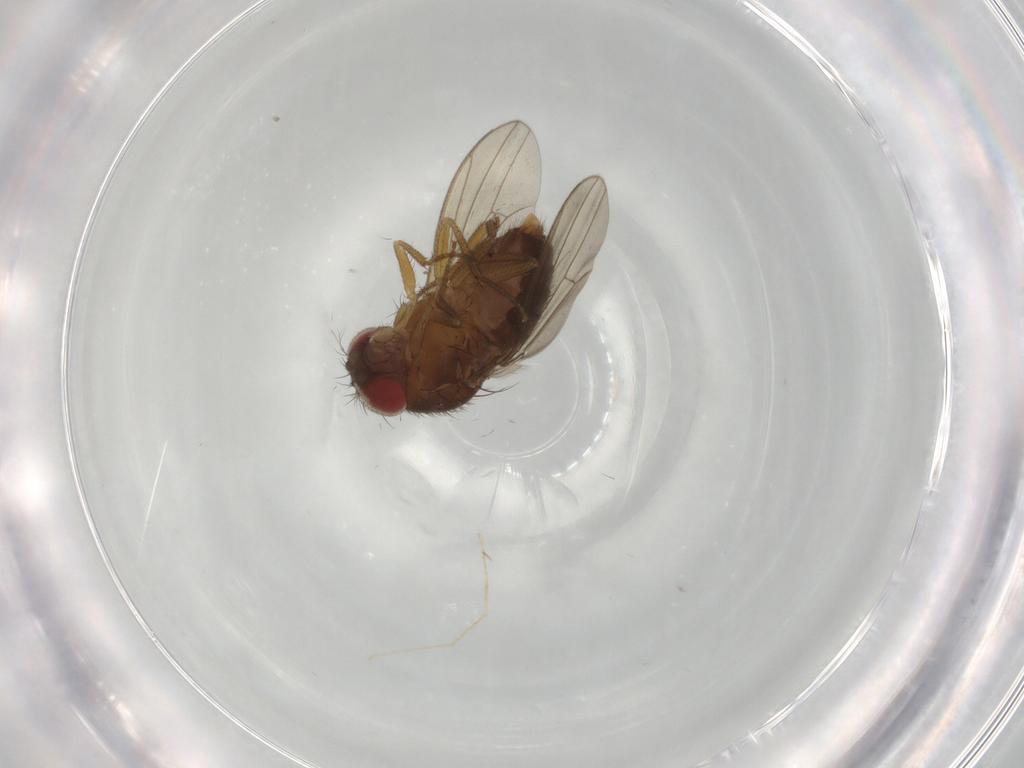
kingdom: Animalia
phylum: Arthropoda
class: Insecta
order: Diptera
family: Drosophilidae
